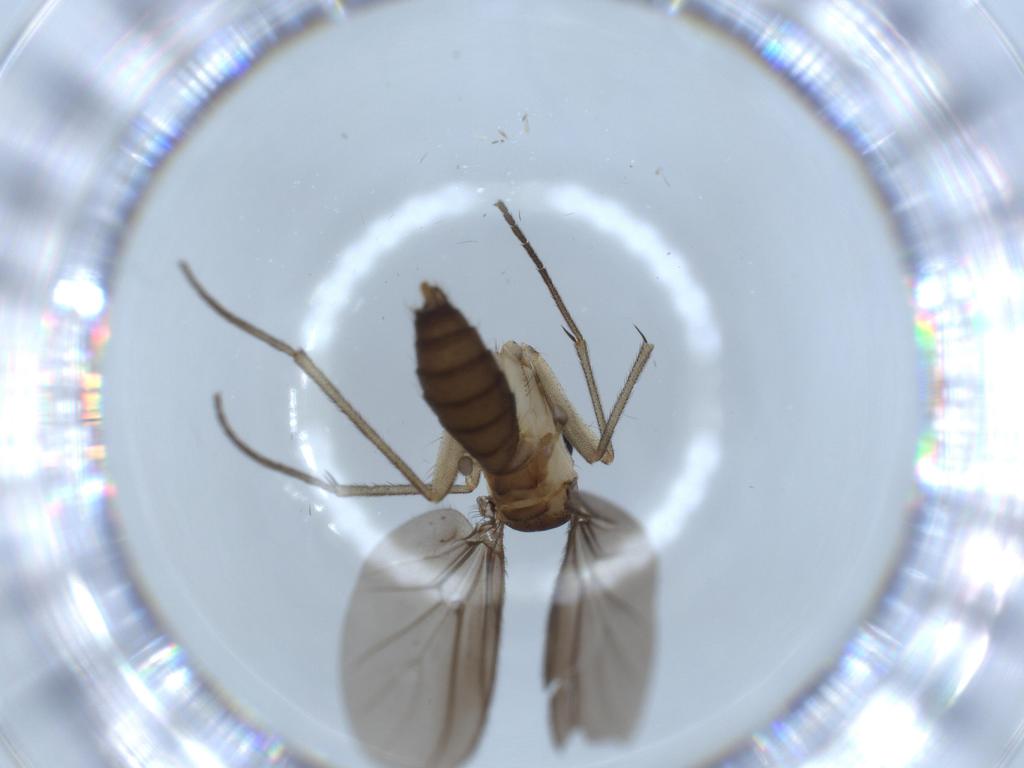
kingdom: Animalia
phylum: Arthropoda
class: Insecta
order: Diptera
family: Diadocidiidae
